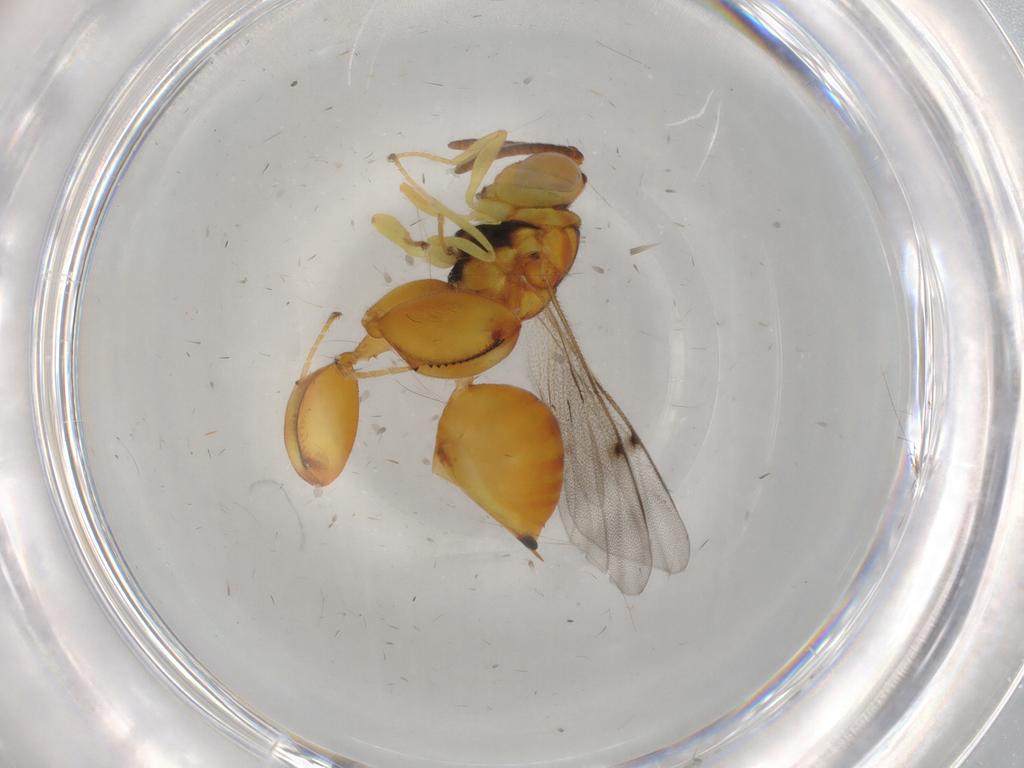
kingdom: Animalia
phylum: Arthropoda
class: Insecta
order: Hymenoptera
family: Chalcididae
